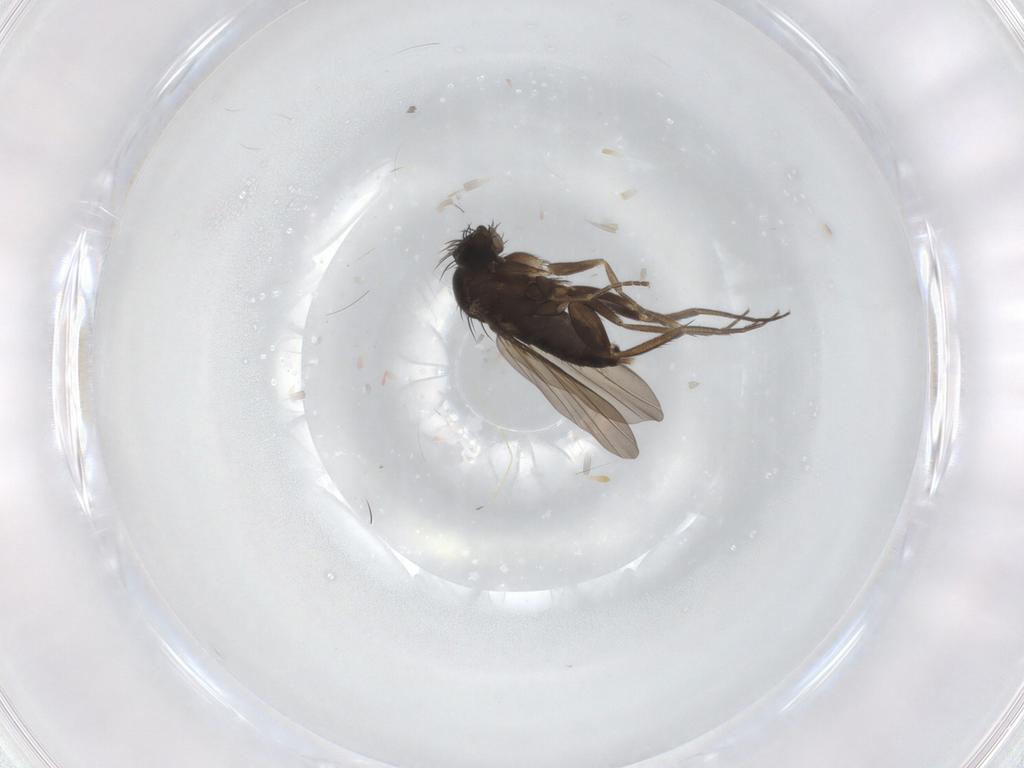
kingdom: Animalia
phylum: Arthropoda
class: Insecta
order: Diptera
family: Phoridae
